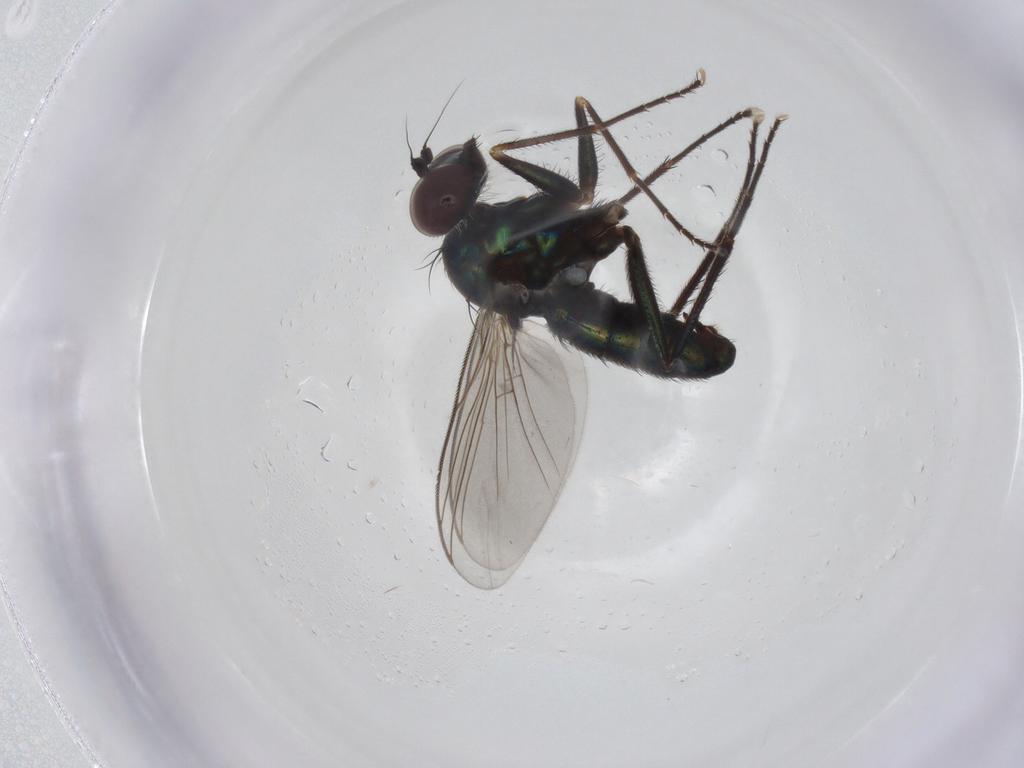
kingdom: Animalia
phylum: Arthropoda
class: Insecta
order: Diptera
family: Dolichopodidae
